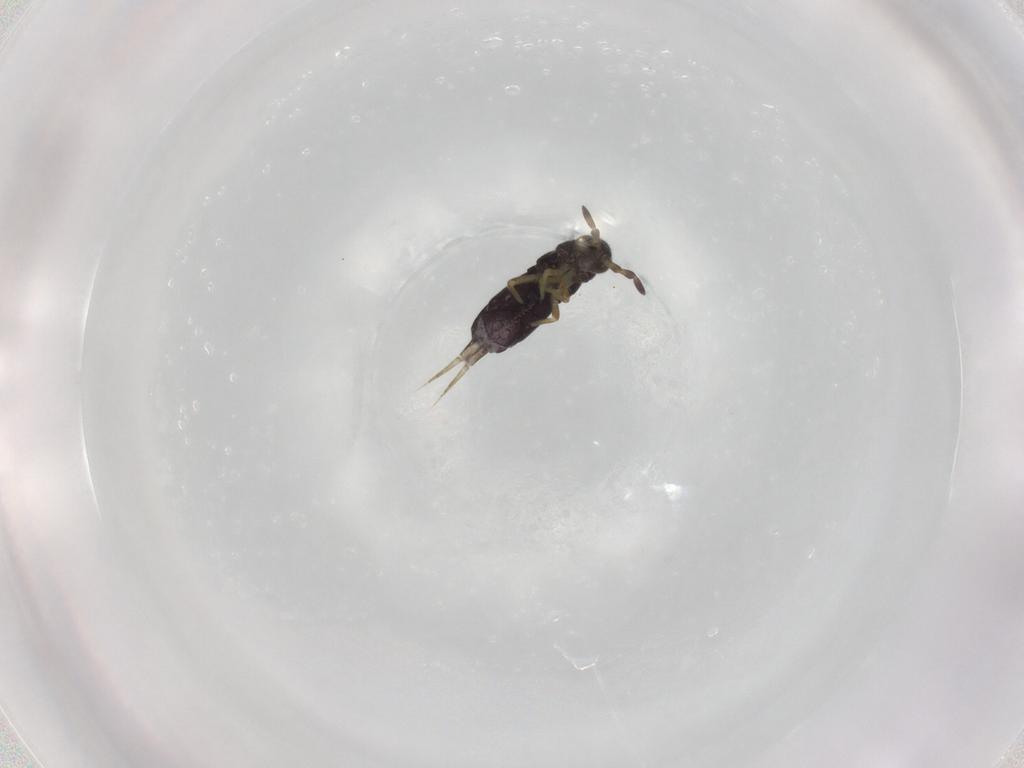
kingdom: Animalia
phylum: Arthropoda
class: Collembola
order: Entomobryomorpha
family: Isotomidae
